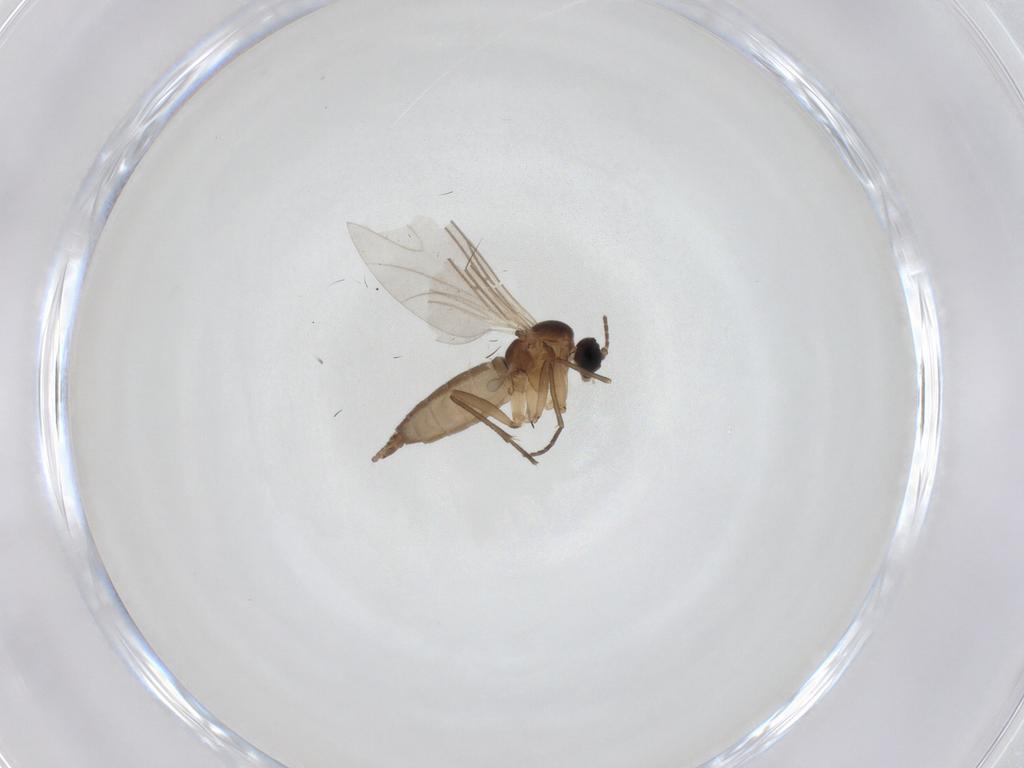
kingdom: Animalia
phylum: Arthropoda
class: Insecta
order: Diptera
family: Sciaridae
